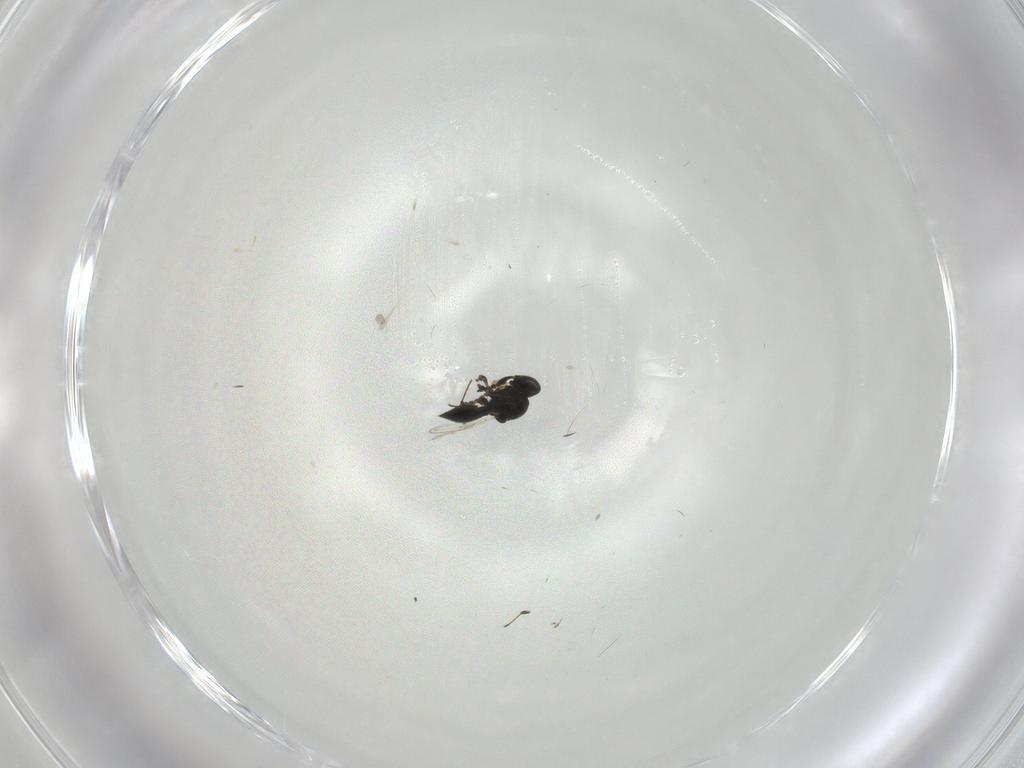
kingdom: Animalia
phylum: Arthropoda
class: Insecta
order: Hymenoptera
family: Platygastridae
